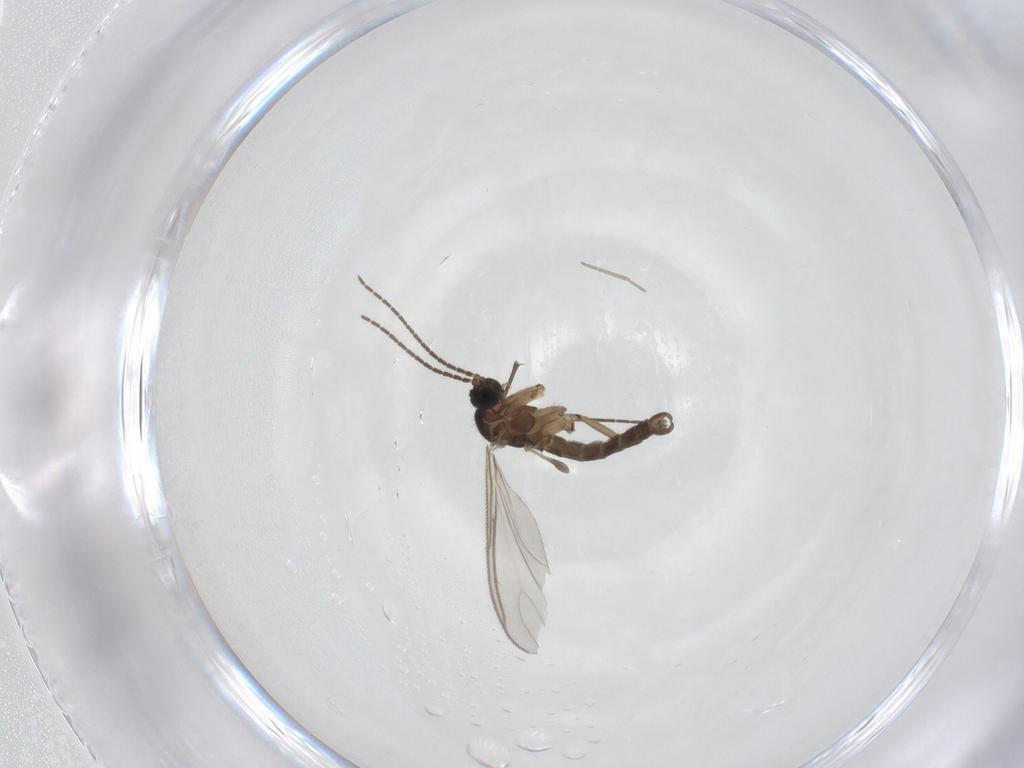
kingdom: Animalia
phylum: Arthropoda
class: Insecta
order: Diptera
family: Sciaridae
